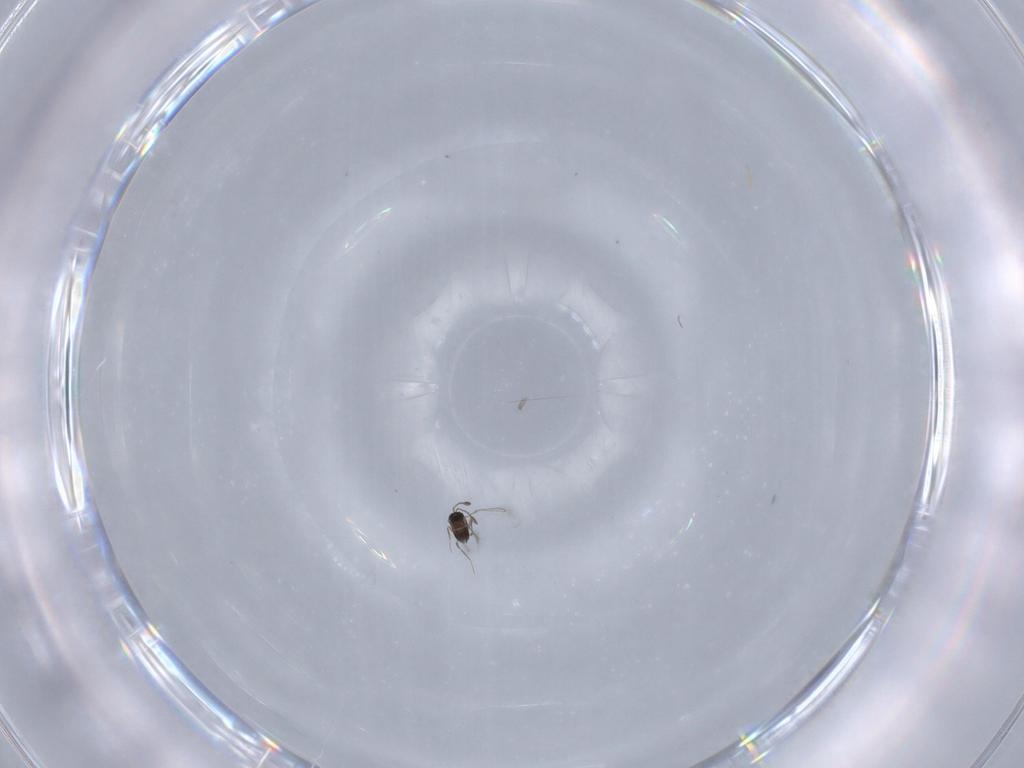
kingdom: Animalia
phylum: Arthropoda
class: Insecta
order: Hymenoptera
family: Mymaridae
